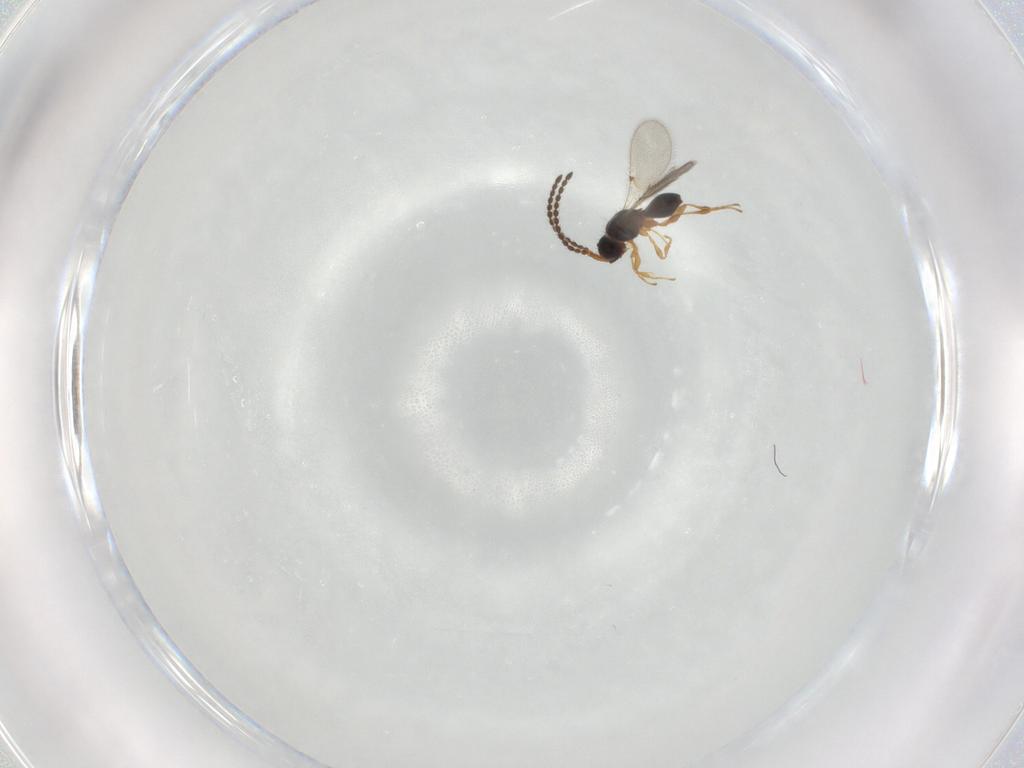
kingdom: Animalia
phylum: Arthropoda
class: Insecta
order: Hymenoptera
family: Diapriidae
